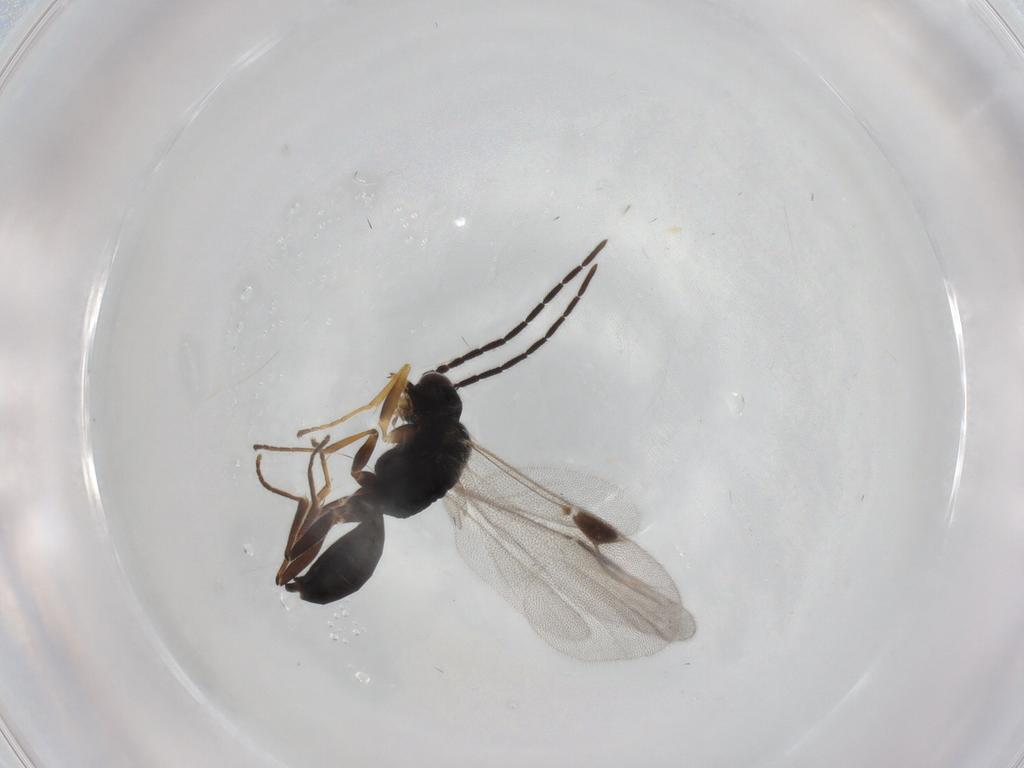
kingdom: Animalia
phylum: Arthropoda
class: Insecta
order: Hymenoptera
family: Dryinidae
